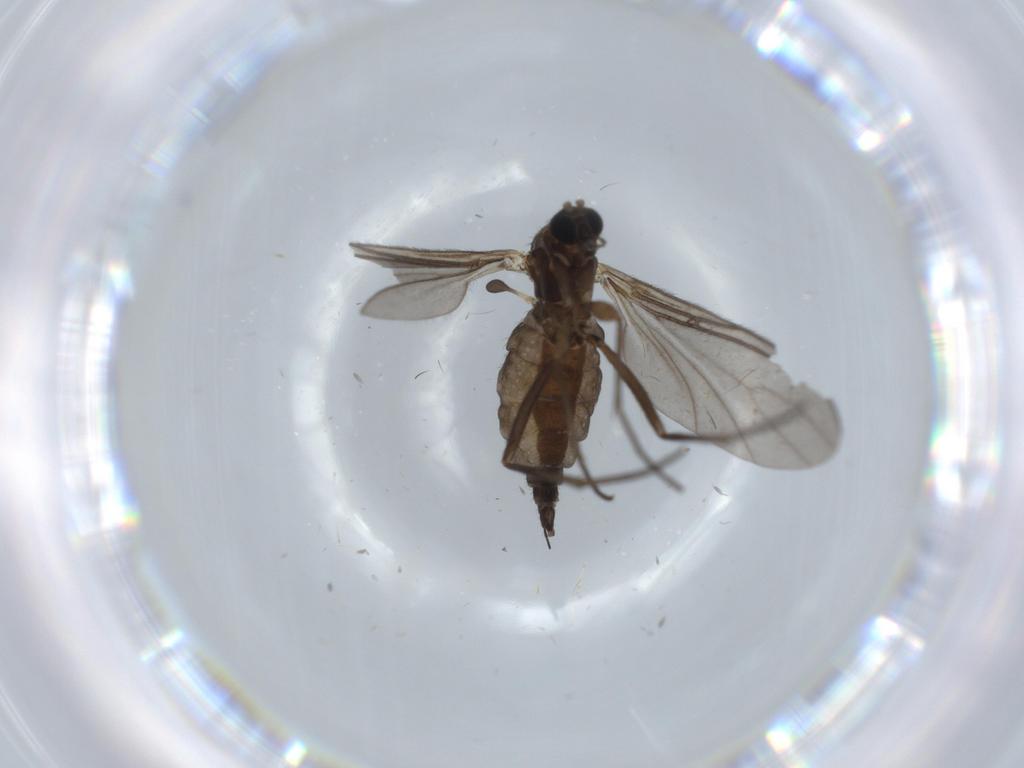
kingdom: Animalia
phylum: Arthropoda
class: Insecta
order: Diptera
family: Sciaridae
